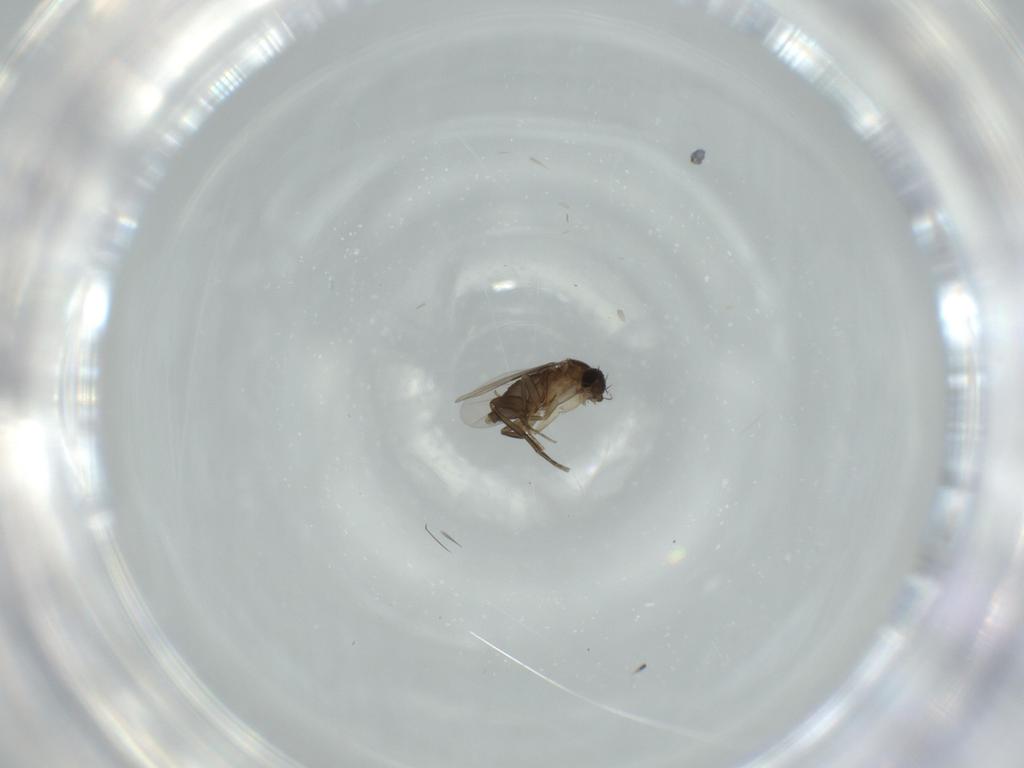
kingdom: Animalia
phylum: Arthropoda
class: Insecta
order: Diptera
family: Phoridae
